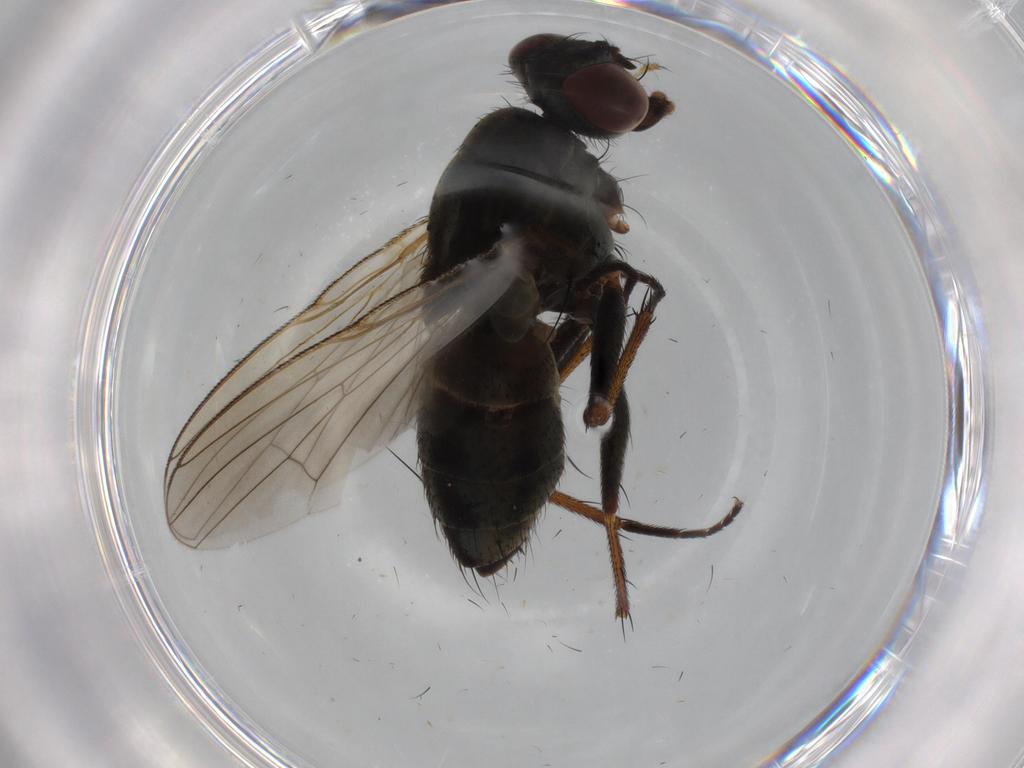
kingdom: Animalia
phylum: Arthropoda
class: Insecta
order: Diptera
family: Muscidae
